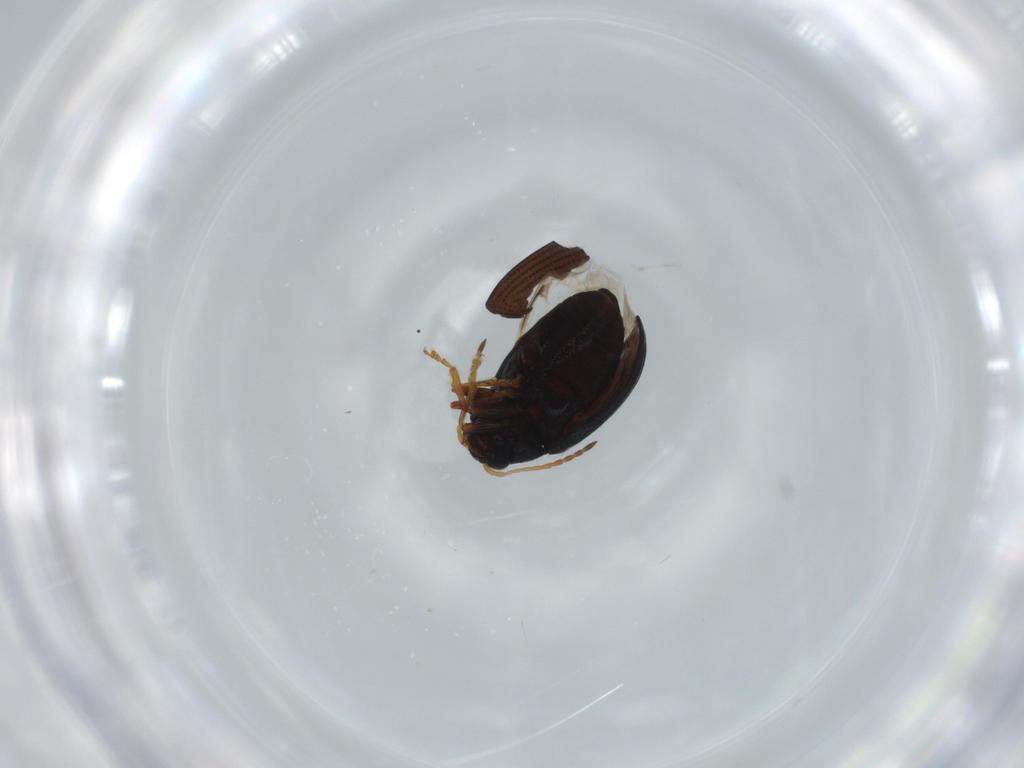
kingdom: Animalia
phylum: Arthropoda
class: Insecta
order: Coleoptera
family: Chrysomelidae
